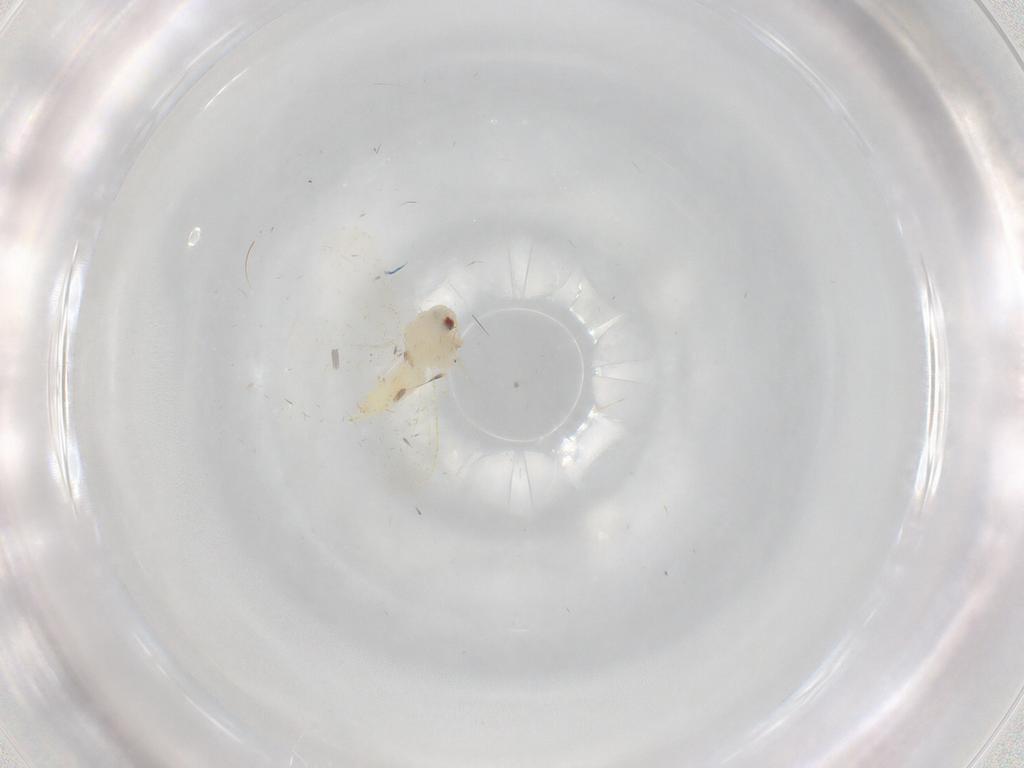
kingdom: Animalia
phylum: Arthropoda
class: Insecta
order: Hemiptera
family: Aleyrodidae
